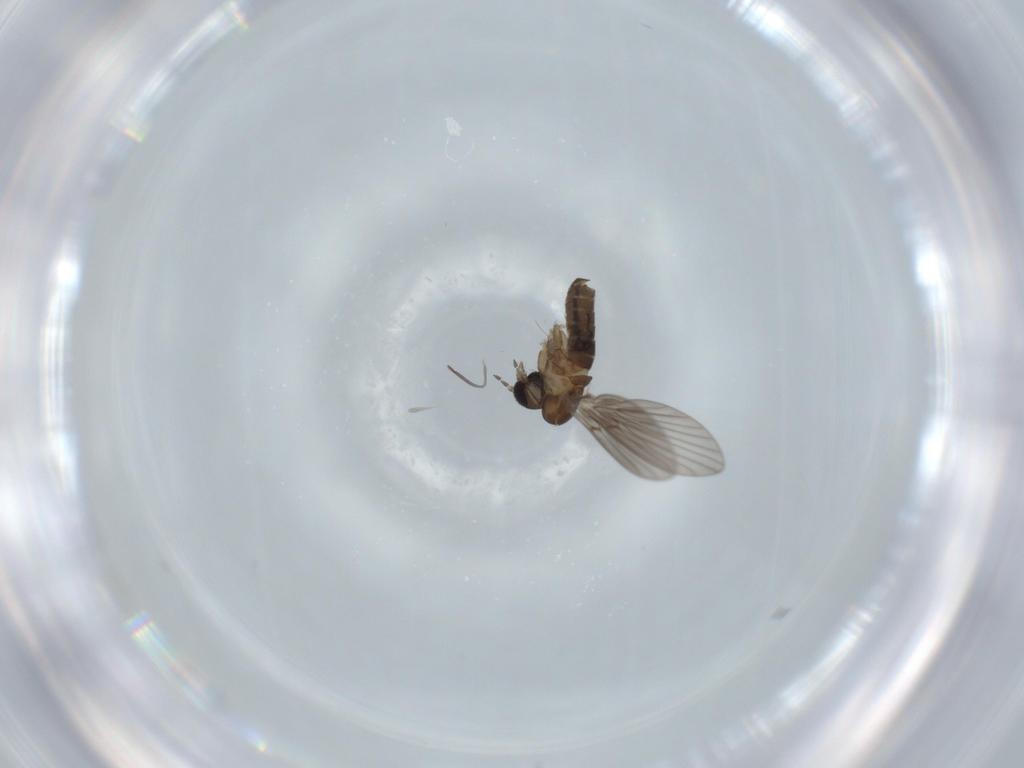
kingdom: Animalia
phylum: Arthropoda
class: Insecta
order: Diptera
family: Psychodidae
